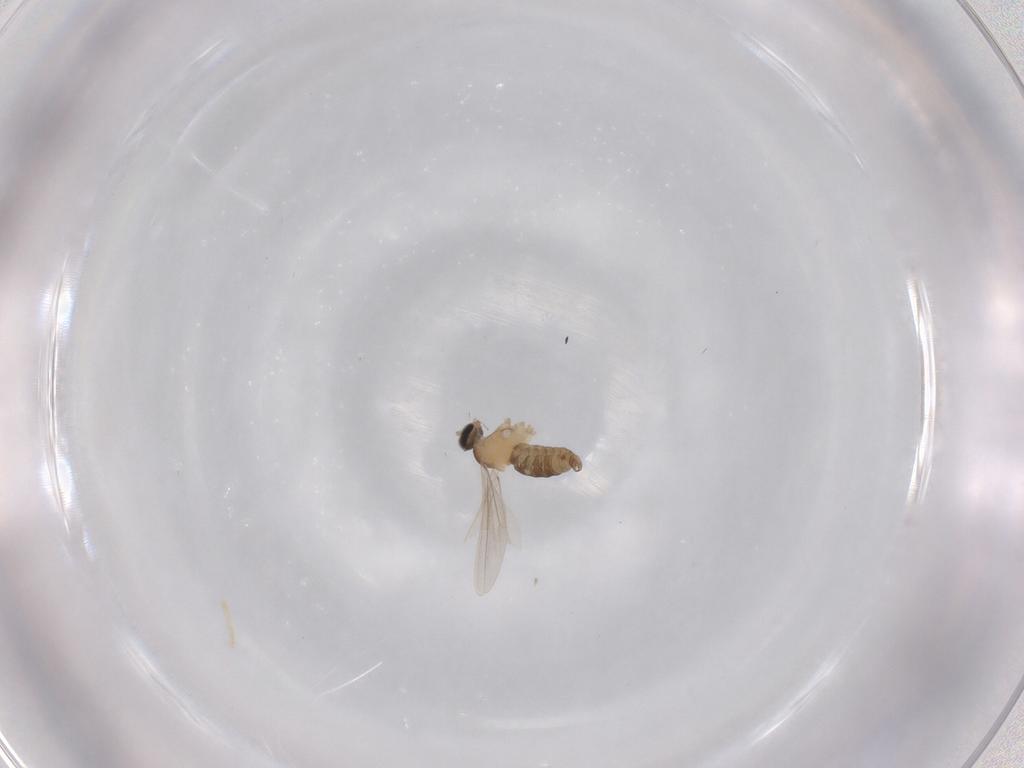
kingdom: Animalia
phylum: Arthropoda
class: Insecta
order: Diptera
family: Cecidomyiidae
